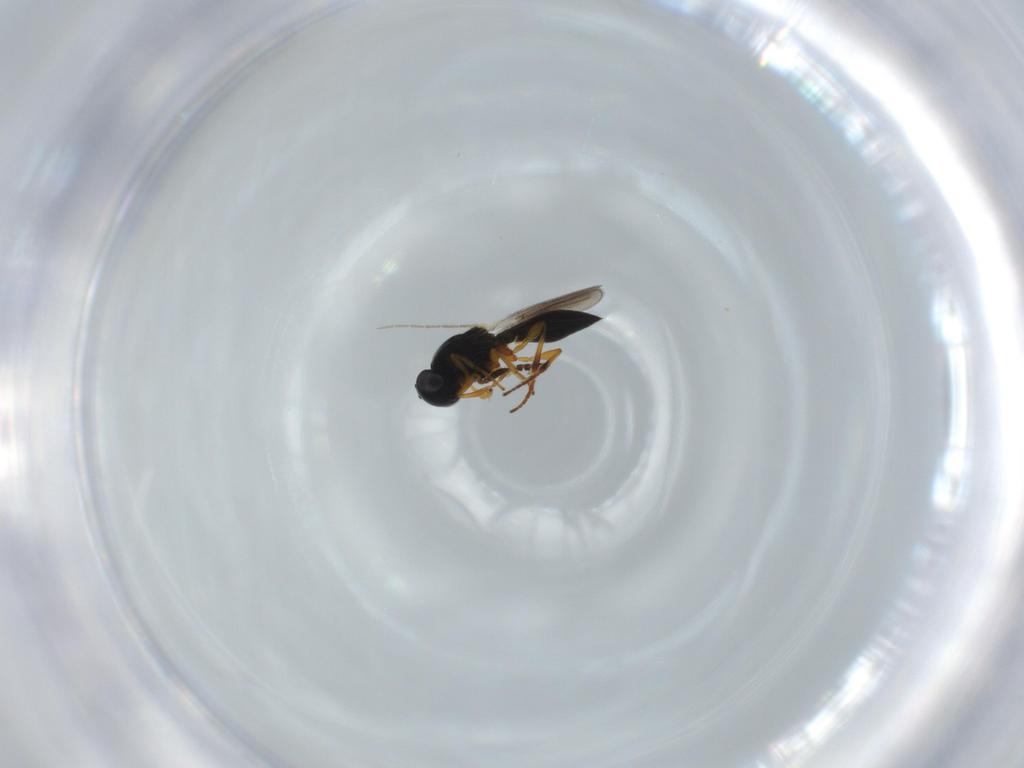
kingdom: Animalia
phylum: Arthropoda
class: Insecta
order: Hymenoptera
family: Platygastridae
